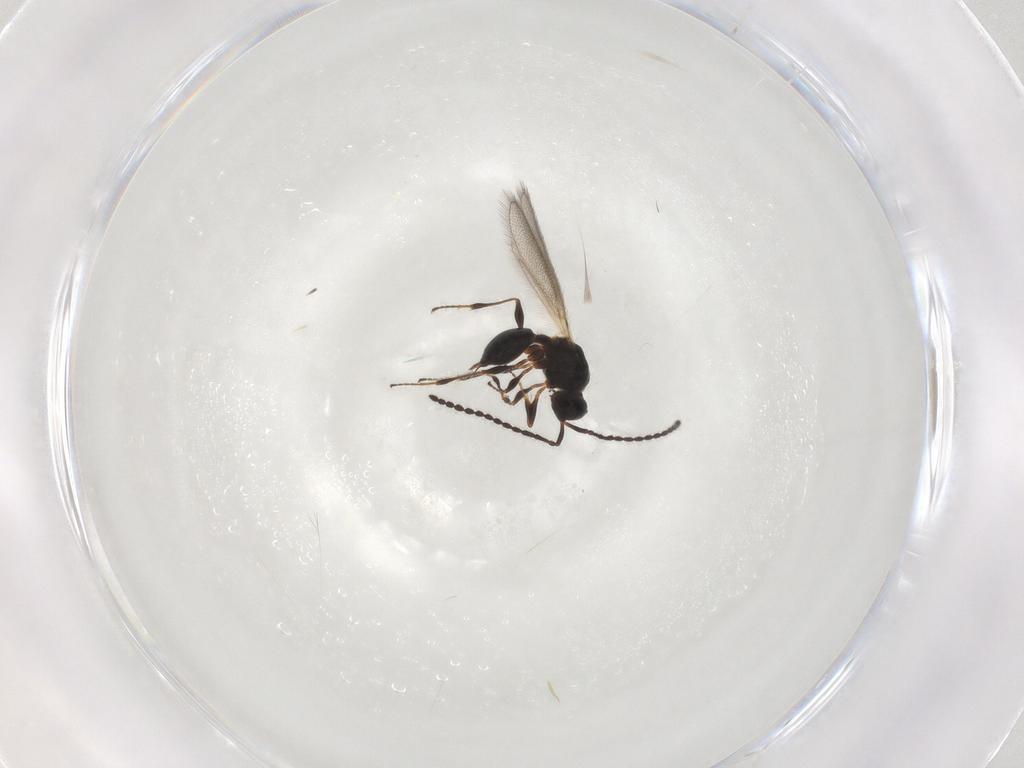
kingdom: Animalia
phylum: Arthropoda
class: Insecta
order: Hymenoptera
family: Diapriidae
